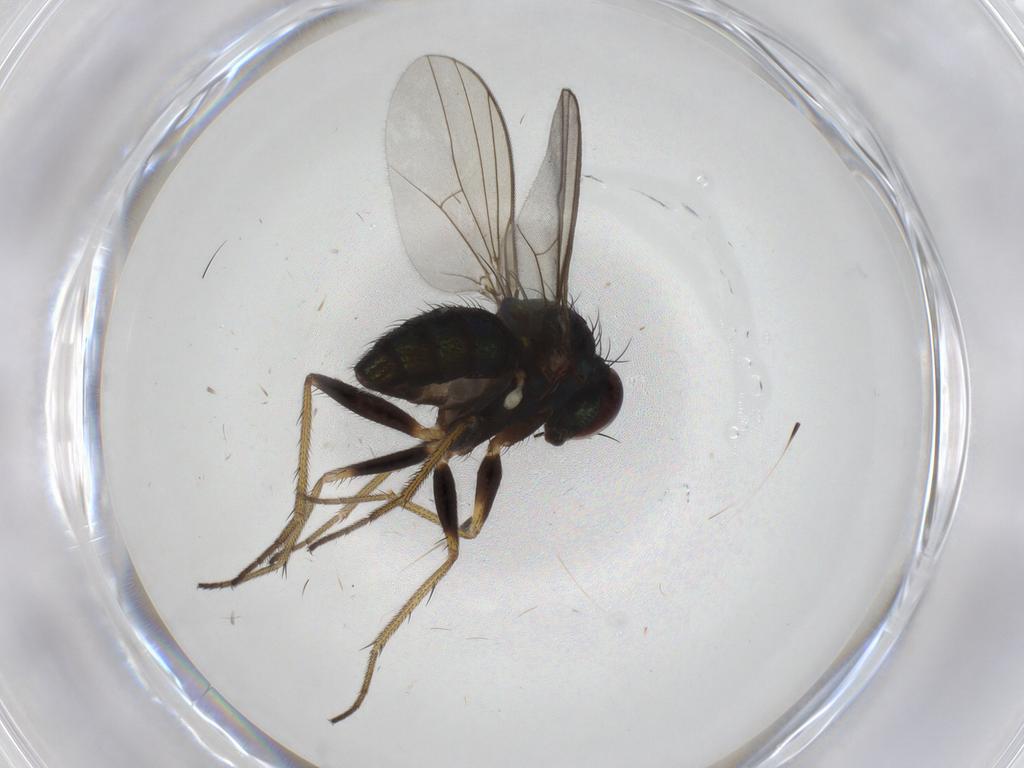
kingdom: Animalia
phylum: Arthropoda
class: Insecta
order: Diptera
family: Dolichopodidae
